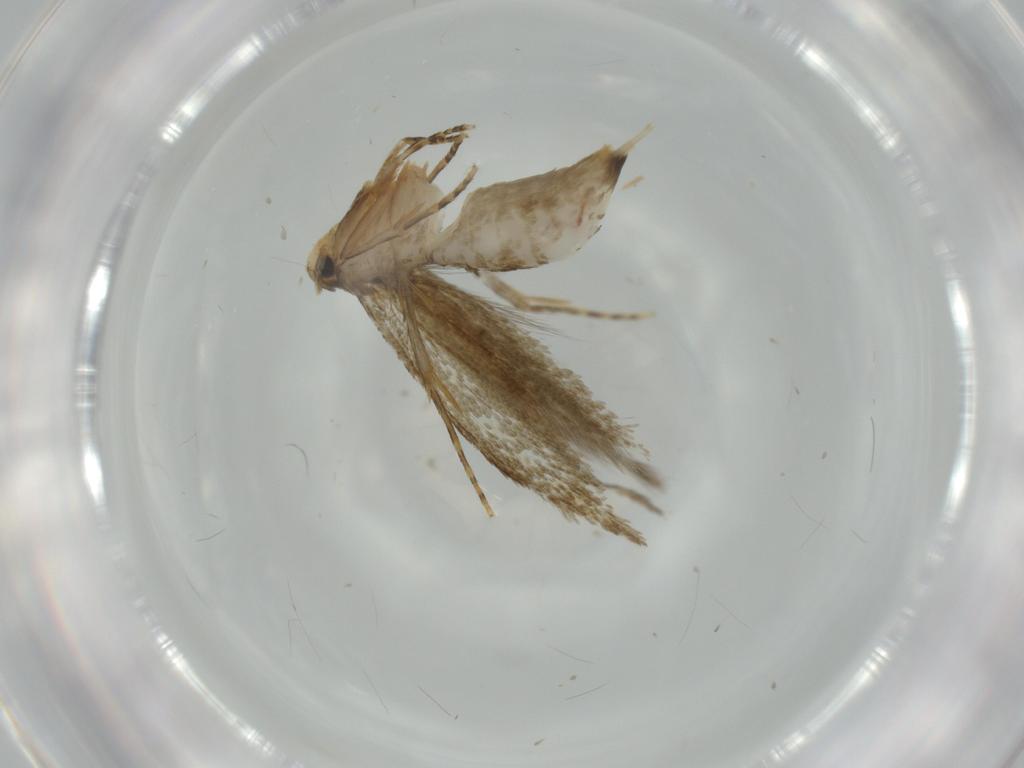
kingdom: Animalia
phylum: Arthropoda
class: Insecta
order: Lepidoptera
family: Tineidae
